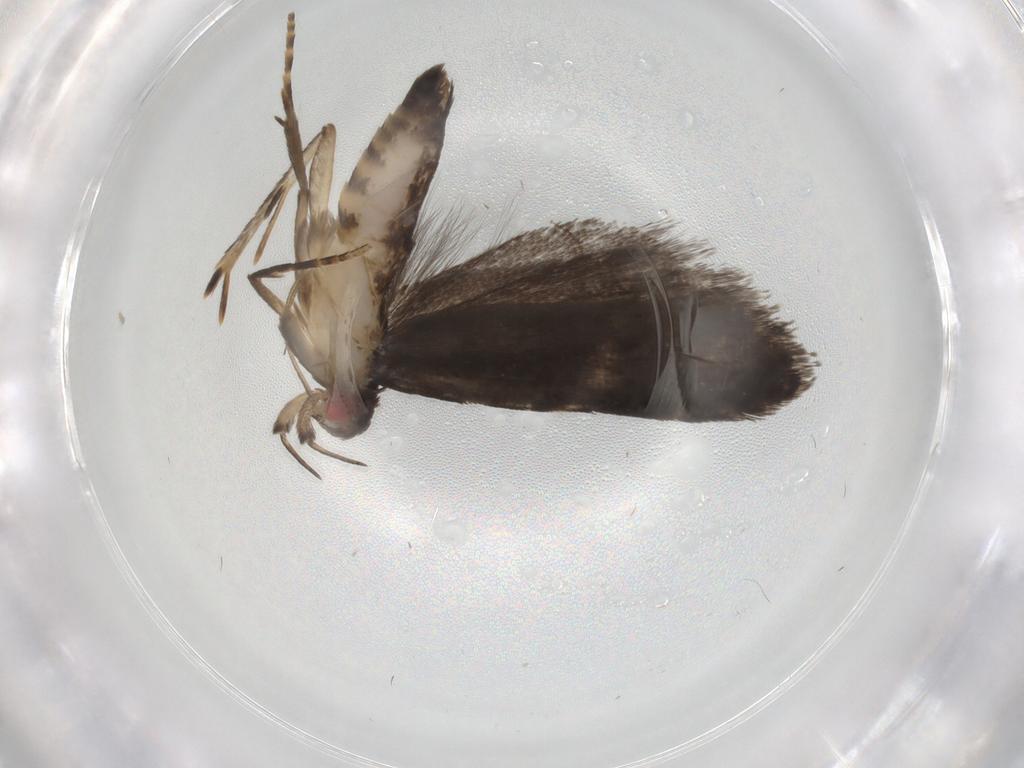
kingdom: Animalia
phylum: Arthropoda
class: Insecta
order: Lepidoptera
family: Gelechiidae
